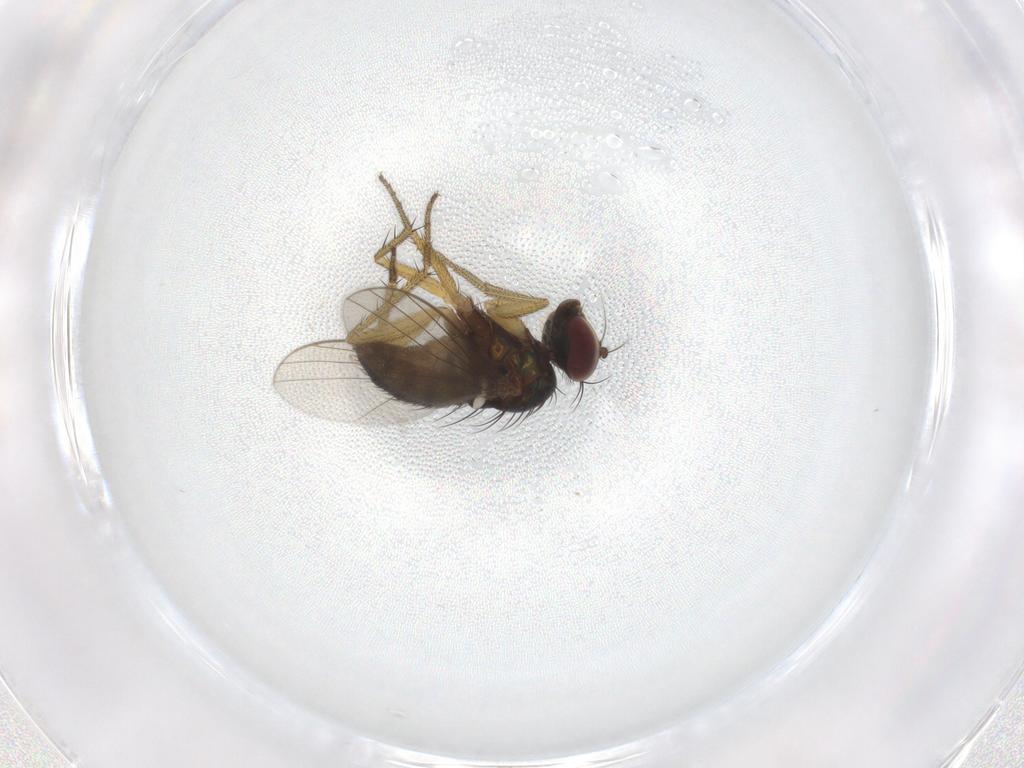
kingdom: Animalia
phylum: Arthropoda
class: Insecta
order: Diptera
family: Dolichopodidae
